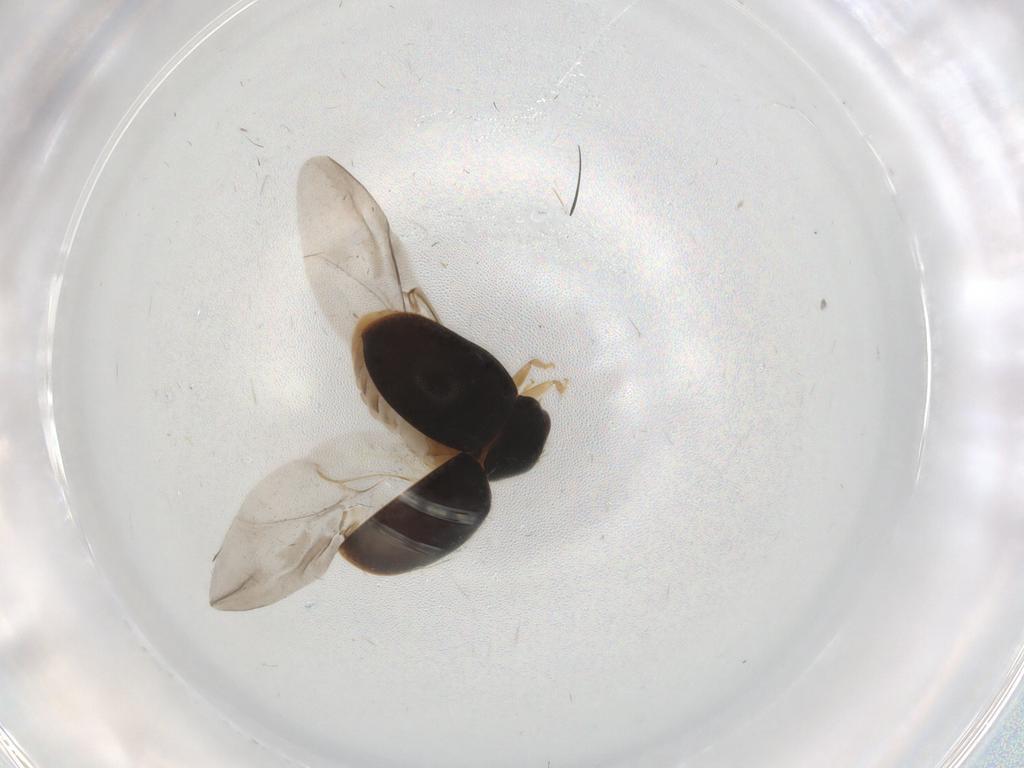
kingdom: Animalia
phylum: Arthropoda
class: Insecta
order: Coleoptera
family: Coccinellidae
